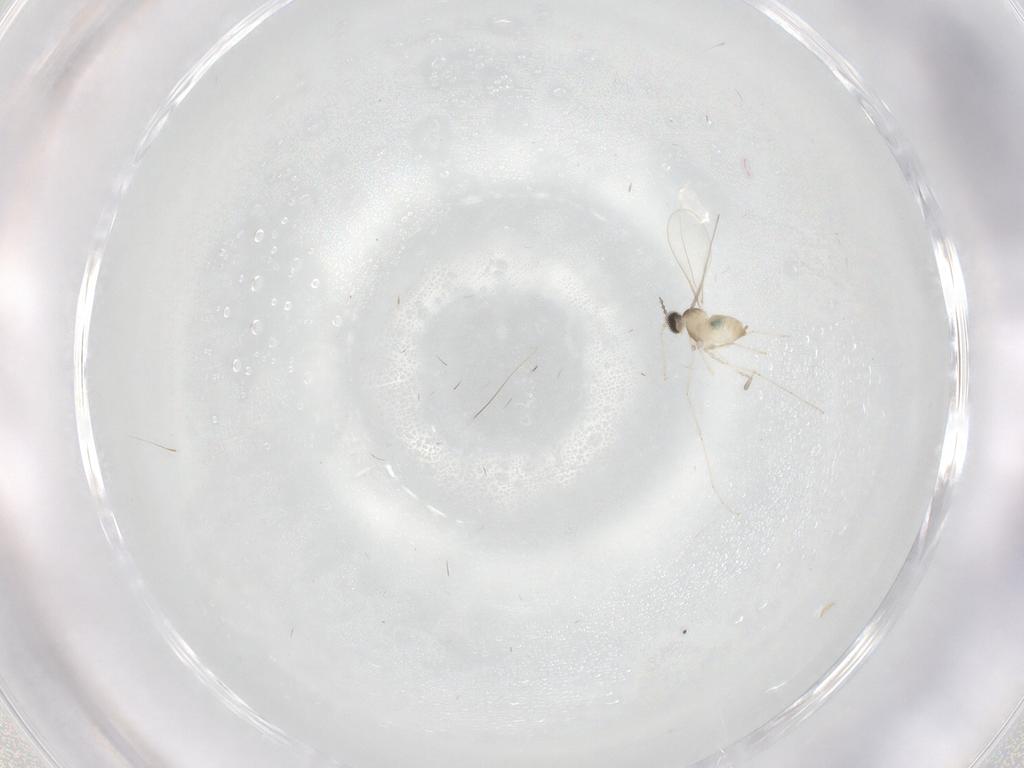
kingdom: Animalia
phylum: Arthropoda
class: Insecta
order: Diptera
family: Cecidomyiidae
